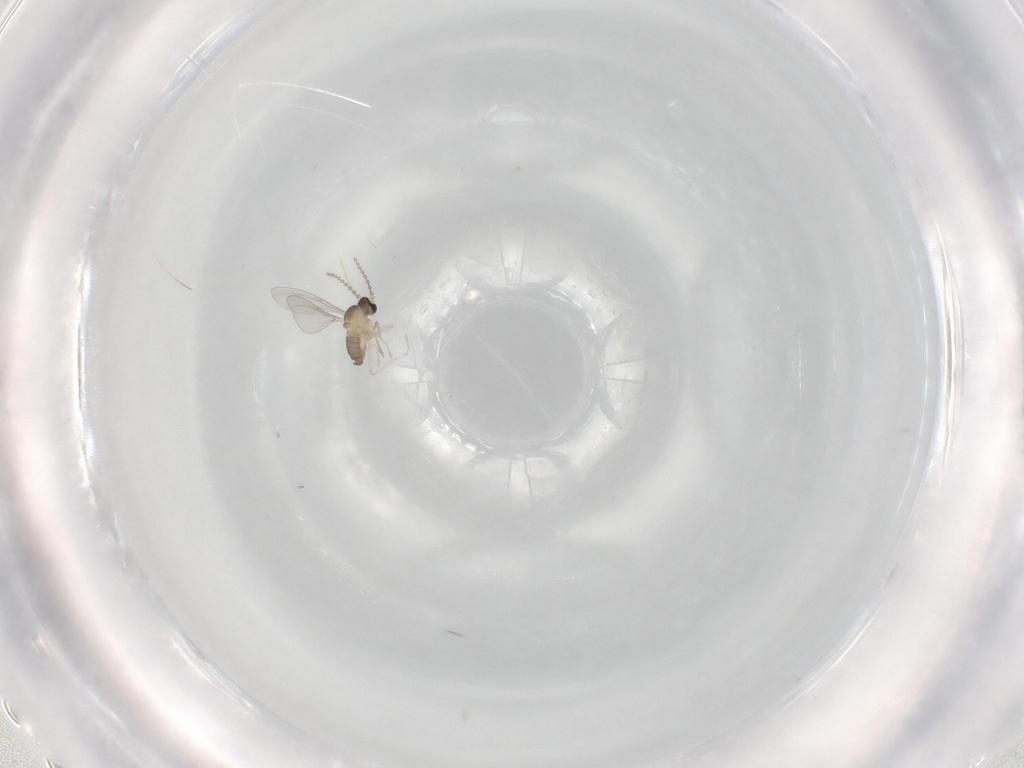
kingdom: Animalia
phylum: Arthropoda
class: Insecta
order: Diptera
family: Cecidomyiidae
